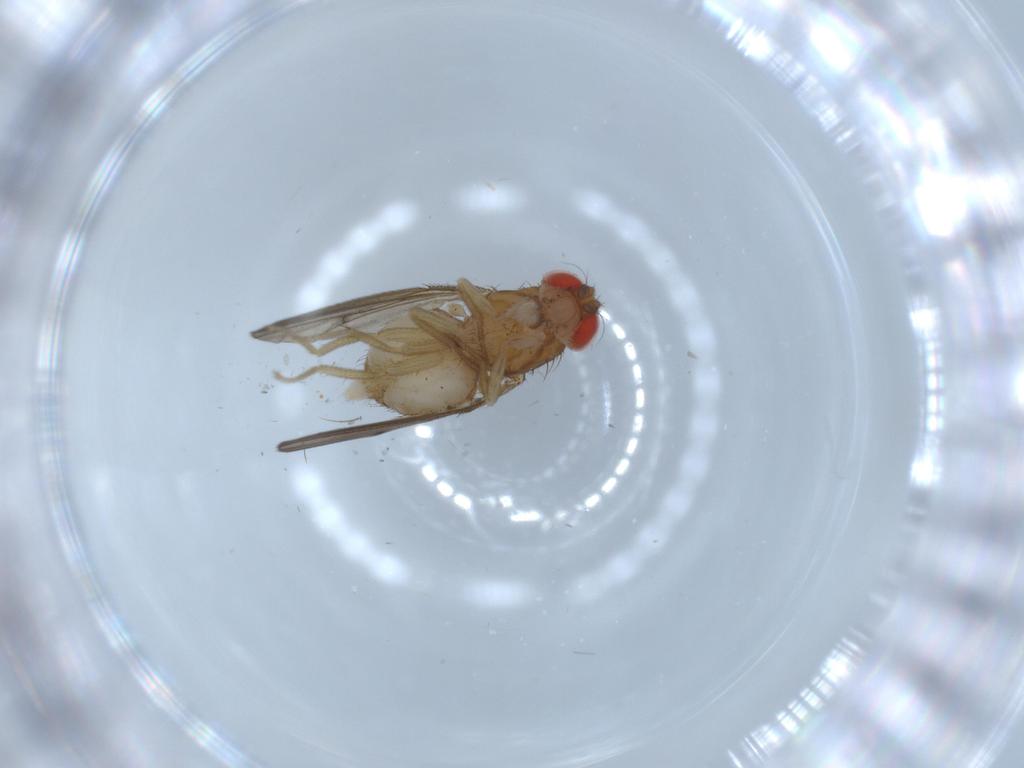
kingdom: Animalia
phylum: Arthropoda
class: Insecta
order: Diptera
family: Drosophilidae
